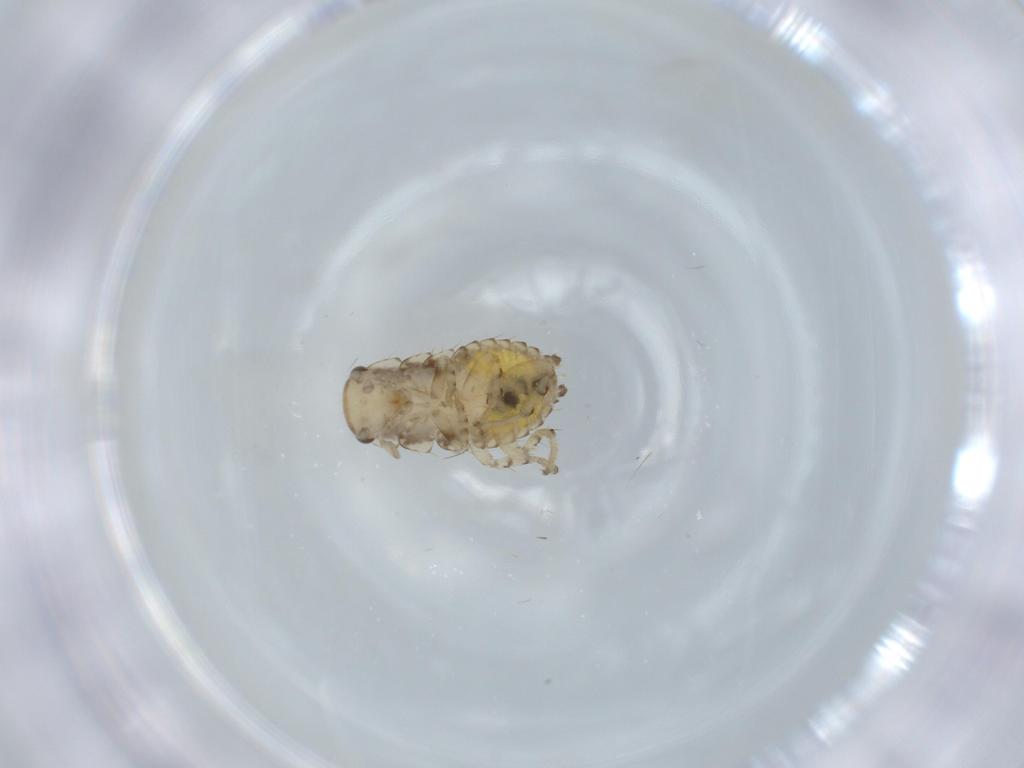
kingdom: Animalia
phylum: Arthropoda
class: Insecta
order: Blattodea
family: Ectobiidae
